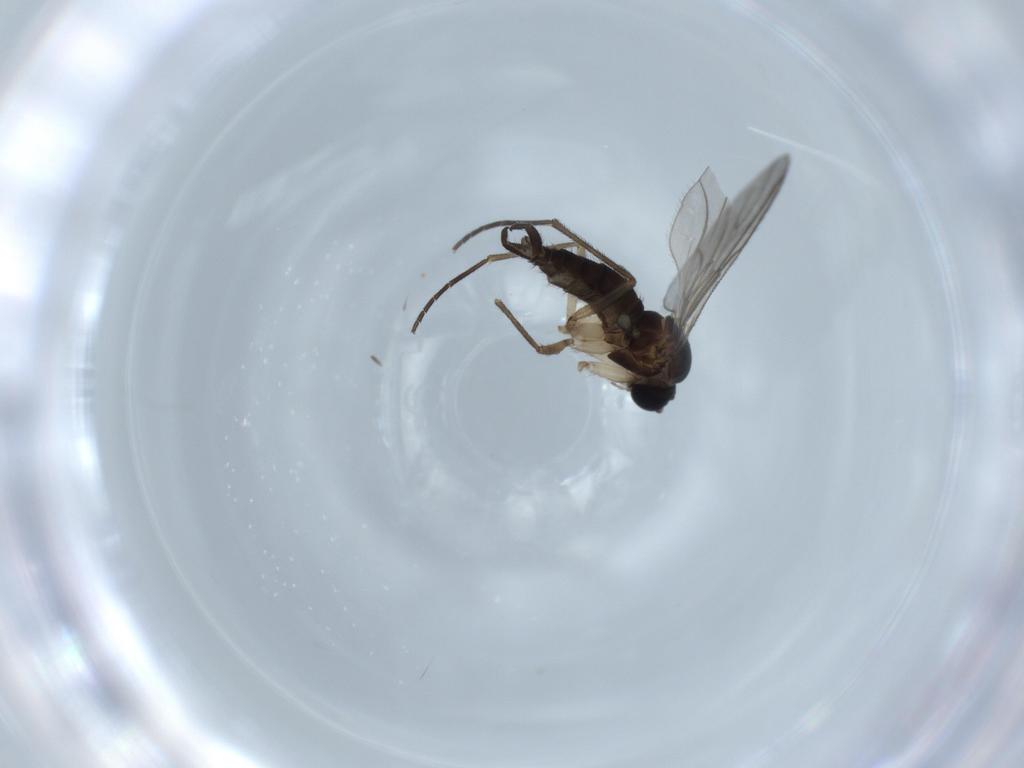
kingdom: Animalia
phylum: Arthropoda
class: Insecta
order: Diptera
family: Sciaridae
